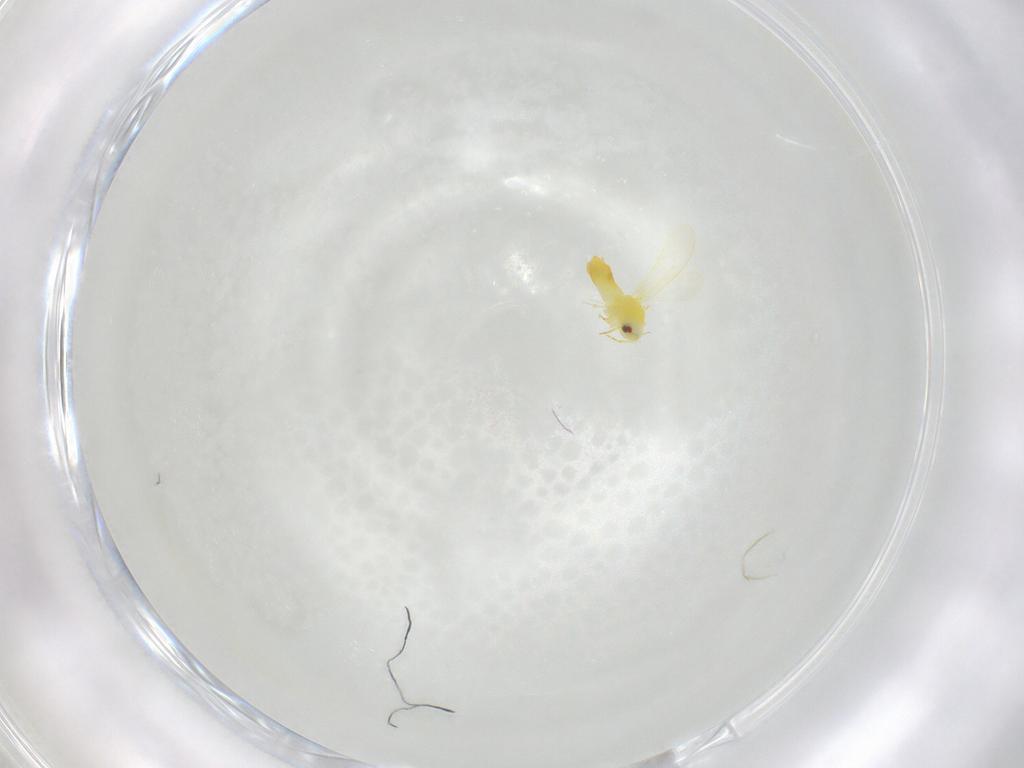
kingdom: Animalia
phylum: Arthropoda
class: Insecta
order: Hemiptera
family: Aleyrodidae
